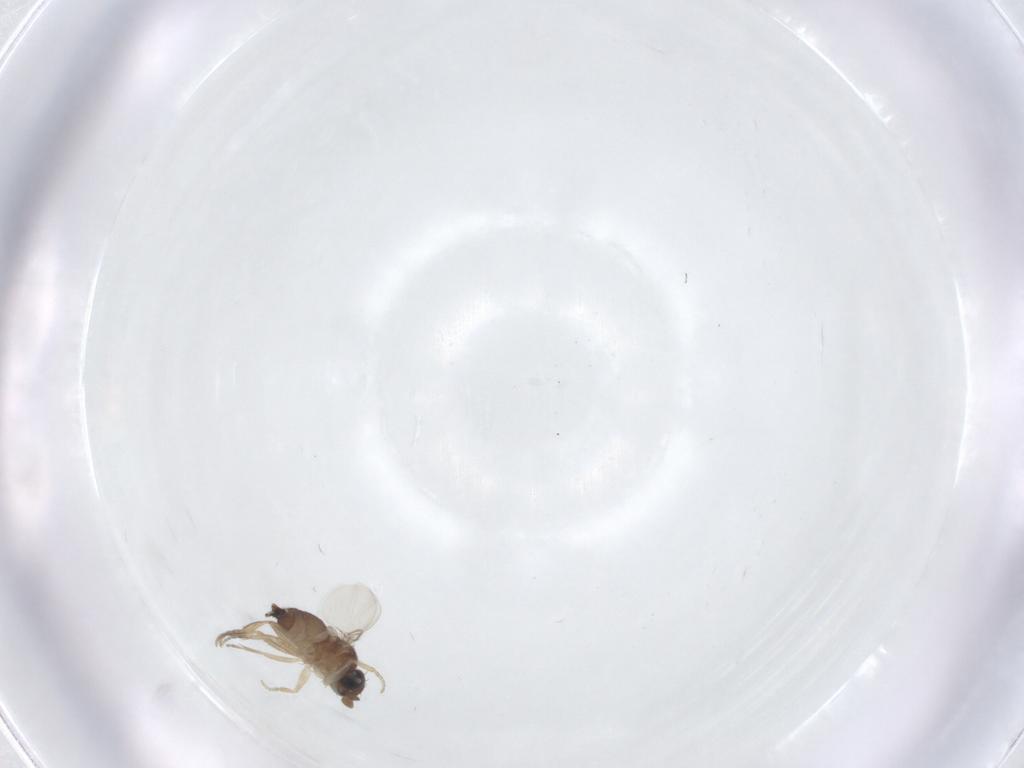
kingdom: Animalia
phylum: Arthropoda
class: Insecta
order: Diptera
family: Phoridae
